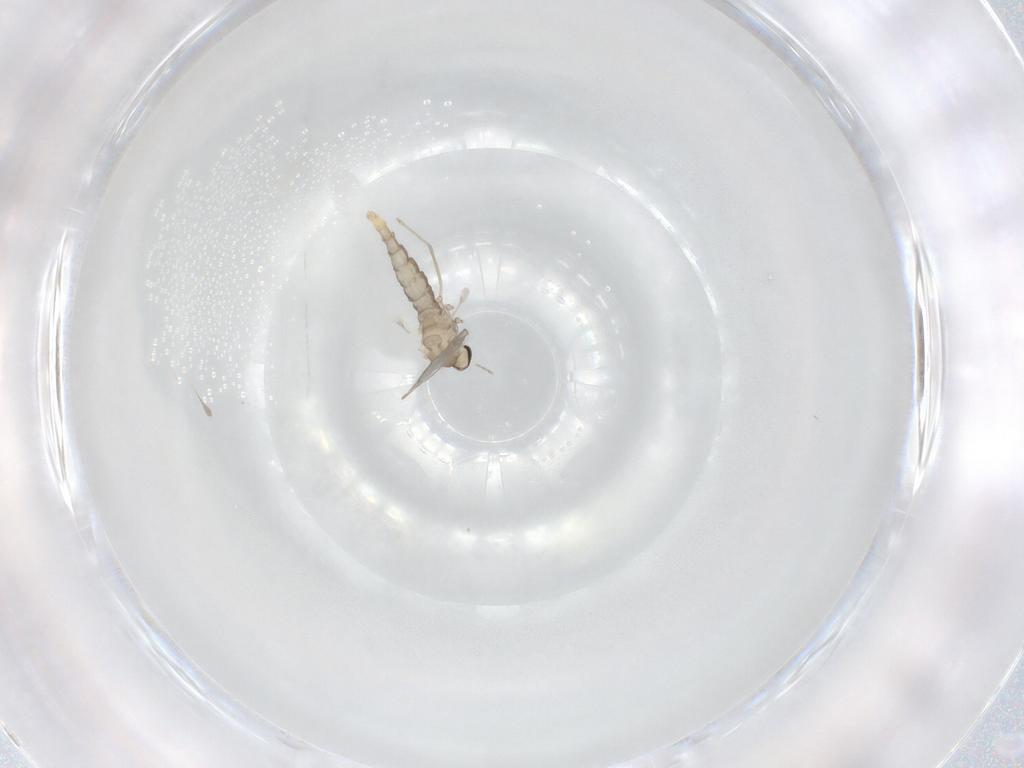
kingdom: Animalia
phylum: Arthropoda
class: Insecta
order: Diptera
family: Cecidomyiidae
